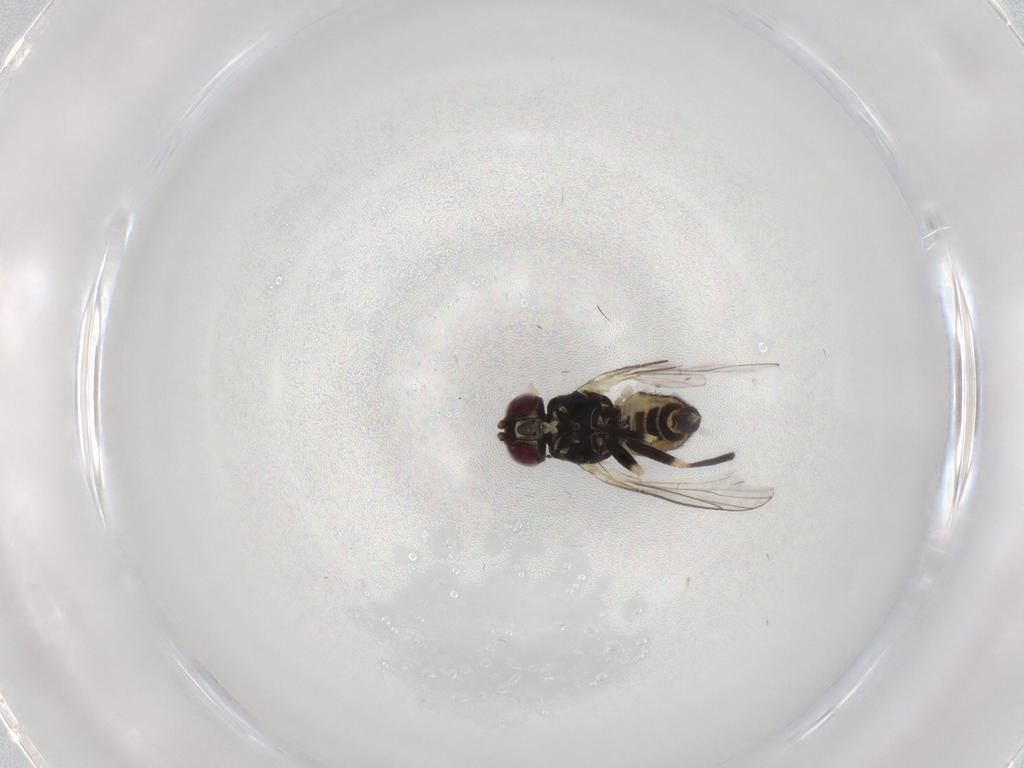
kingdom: Animalia
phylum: Arthropoda
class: Insecta
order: Diptera
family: Agromyzidae
